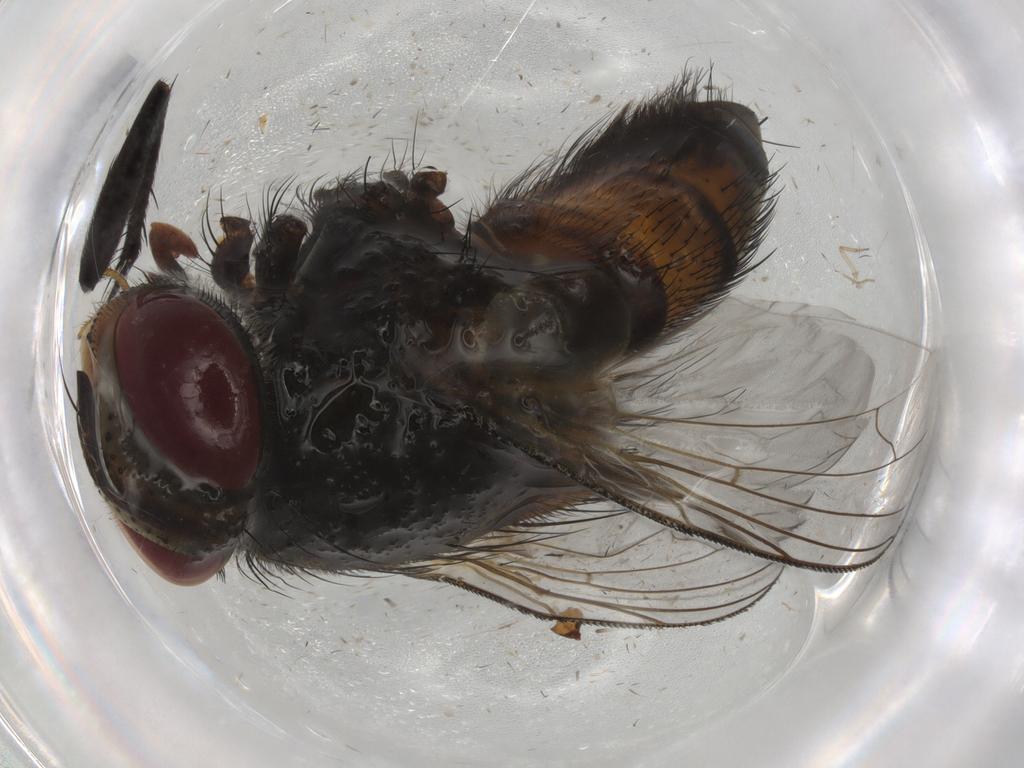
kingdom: Animalia
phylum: Arthropoda
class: Insecta
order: Diptera
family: Tachinidae
